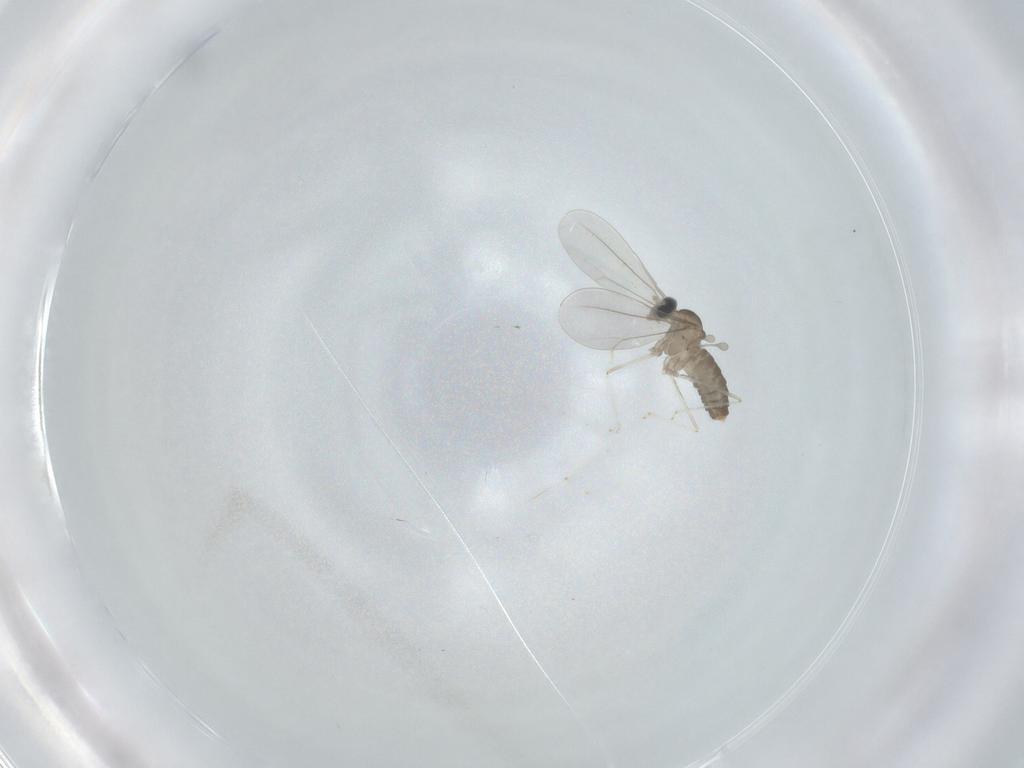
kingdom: Animalia
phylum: Arthropoda
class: Insecta
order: Diptera
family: Cecidomyiidae
